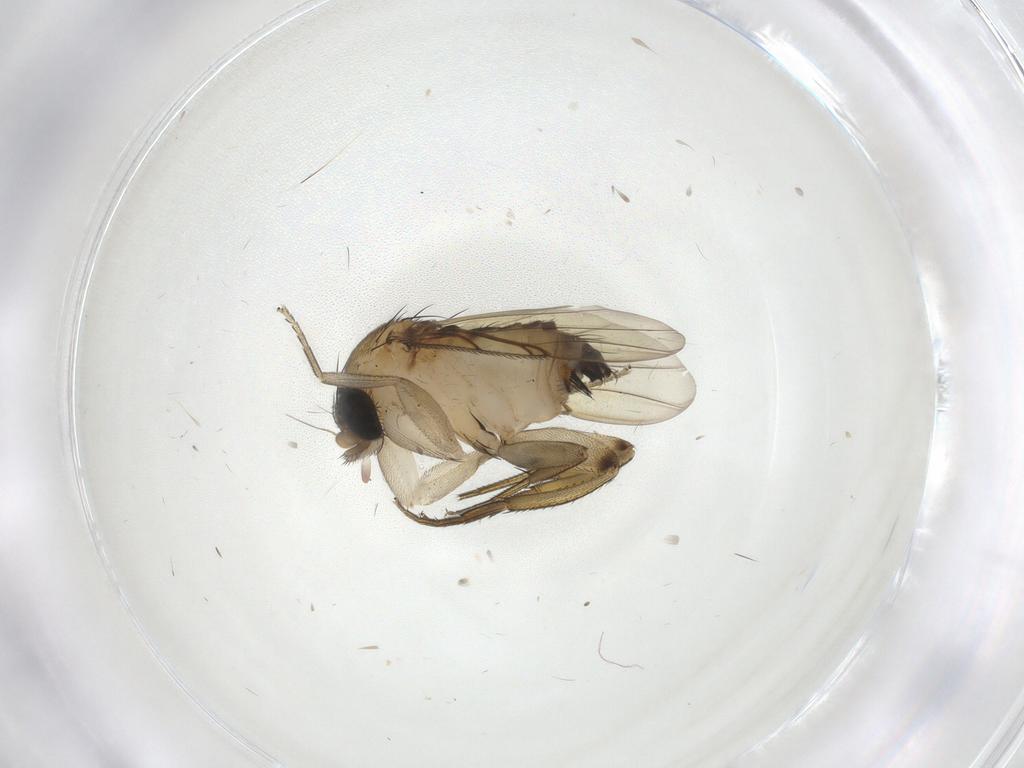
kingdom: Animalia
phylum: Arthropoda
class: Insecta
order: Diptera
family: Phoridae
